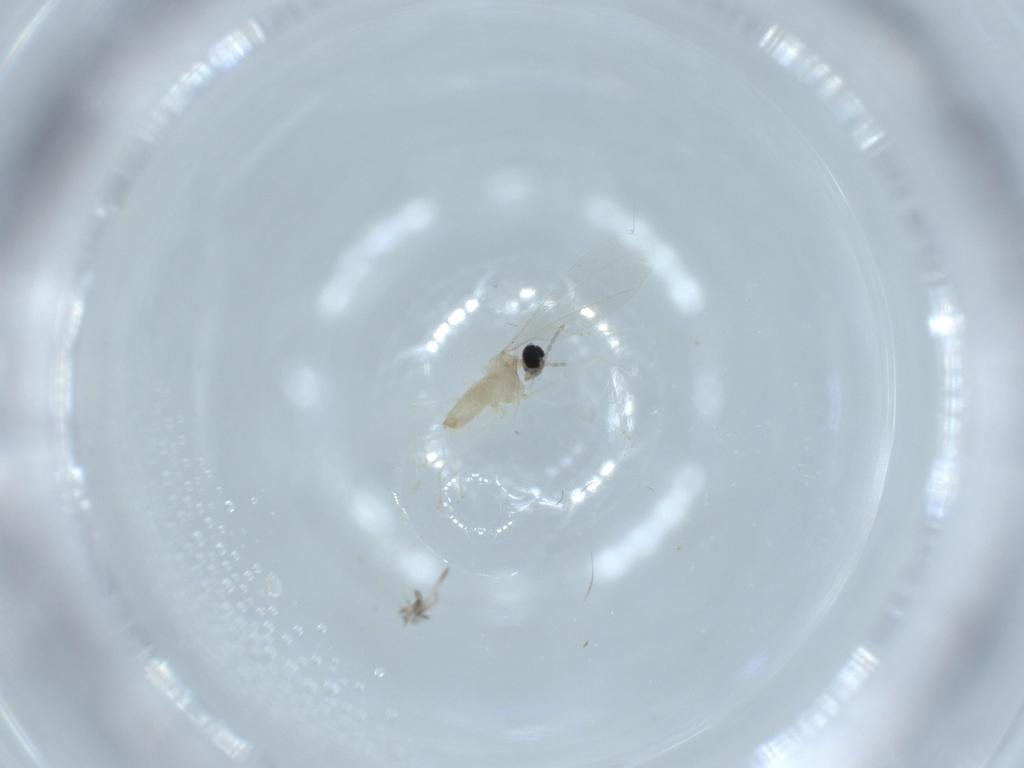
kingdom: Animalia
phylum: Arthropoda
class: Insecta
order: Diptera
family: Cecidomyiidae
